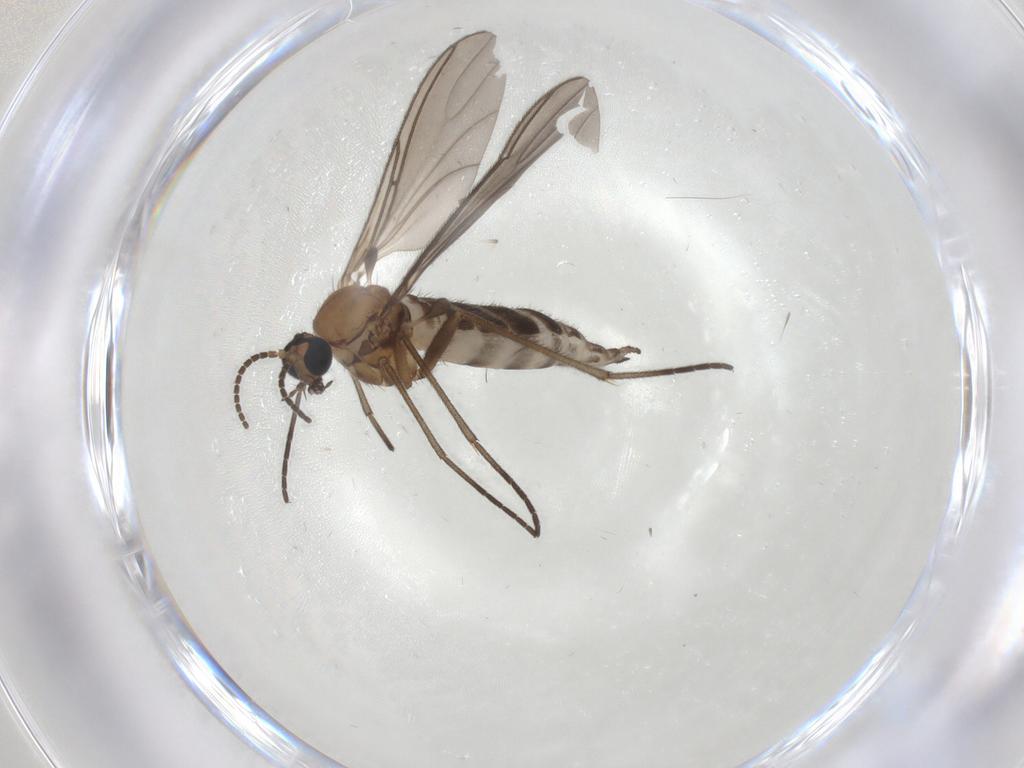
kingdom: Animalia
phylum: Arthropoda
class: Insecta
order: Diptera
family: Sciaridae
